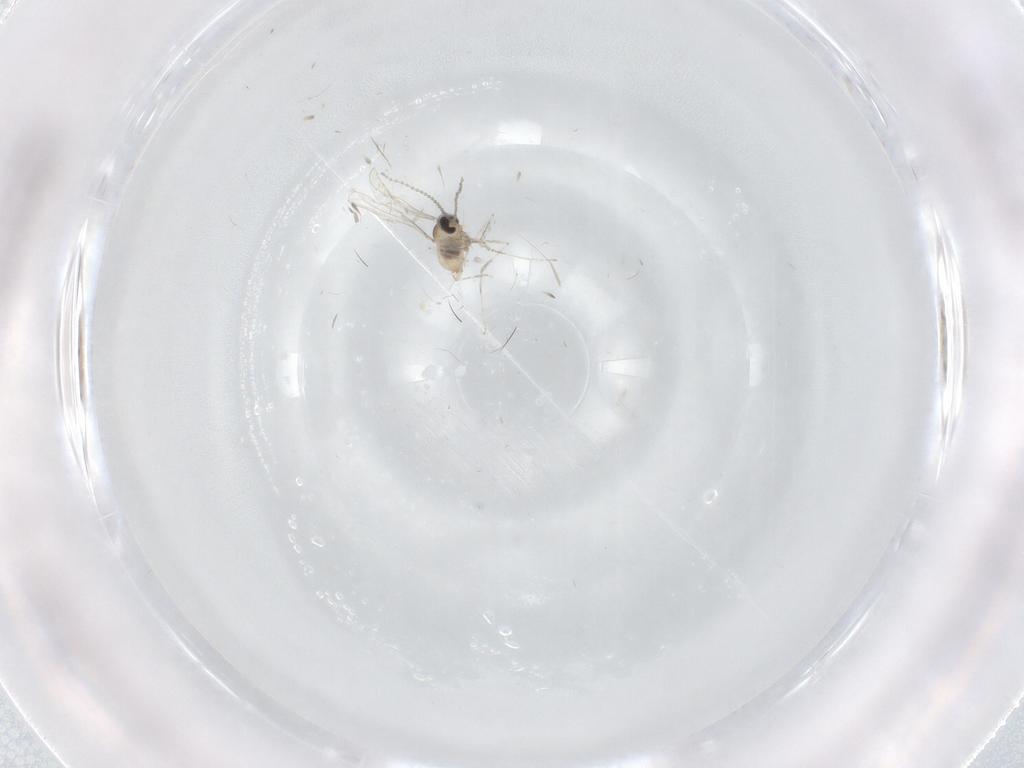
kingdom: Animalia
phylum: Arthropoda
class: Insecta
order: Diptera
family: Cecidomyiidae
